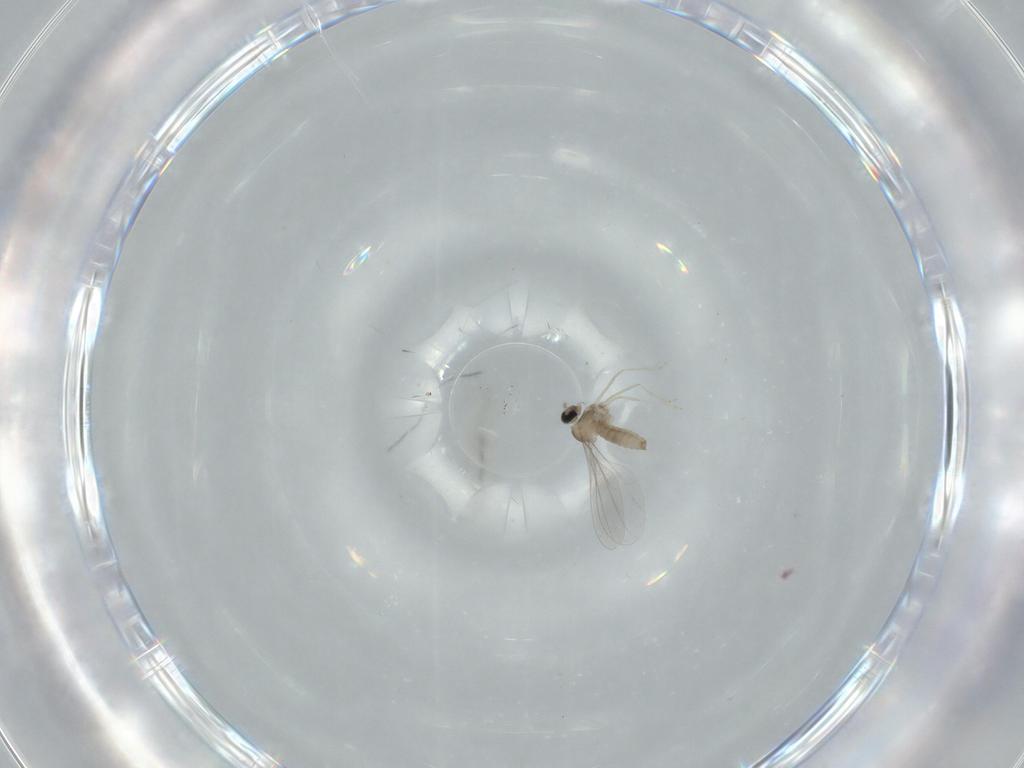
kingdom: Animalia
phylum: Arthropoda
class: Insecta
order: Diptera
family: Cecidomyiidae
